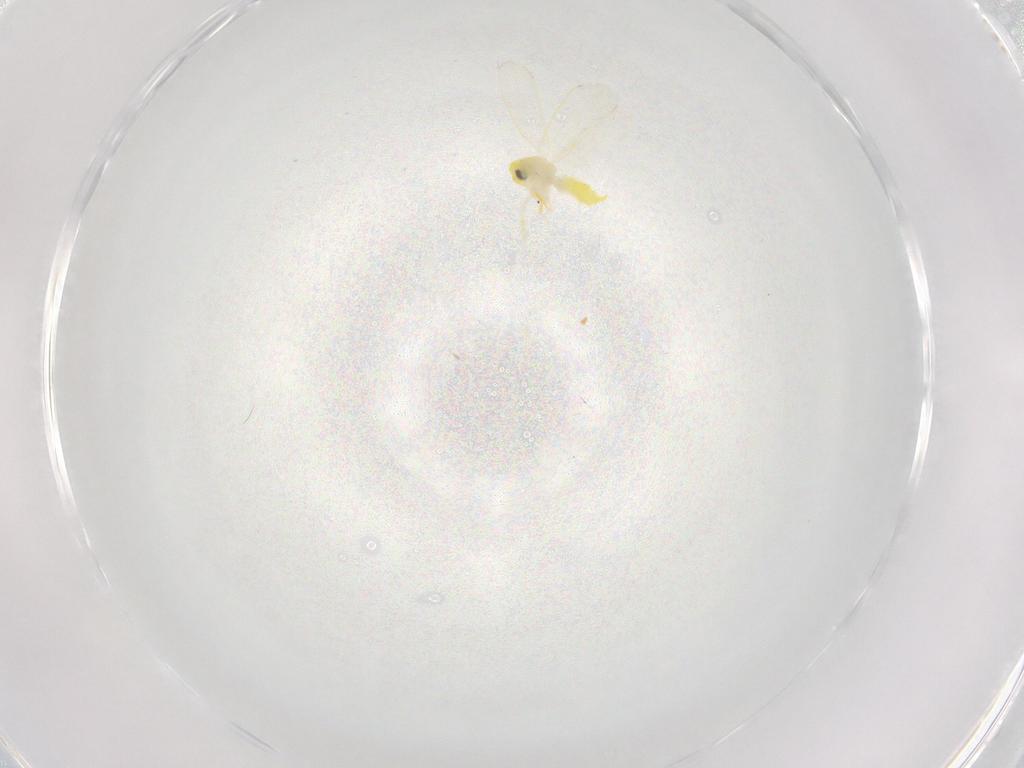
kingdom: Animalia
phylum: Arthropoda
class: Insecta
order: Hemiptera
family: Aleyrodidae
